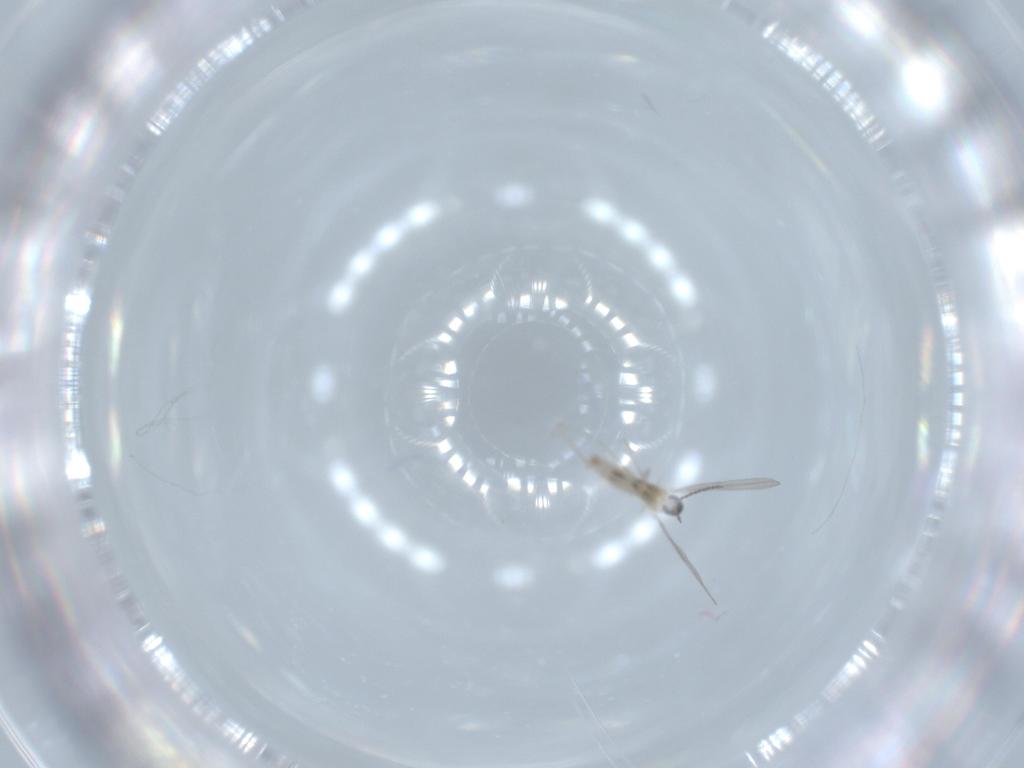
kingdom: Animalia
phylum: Arthropoda
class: Insecta
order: Diptera
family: Cecidomyiidae
